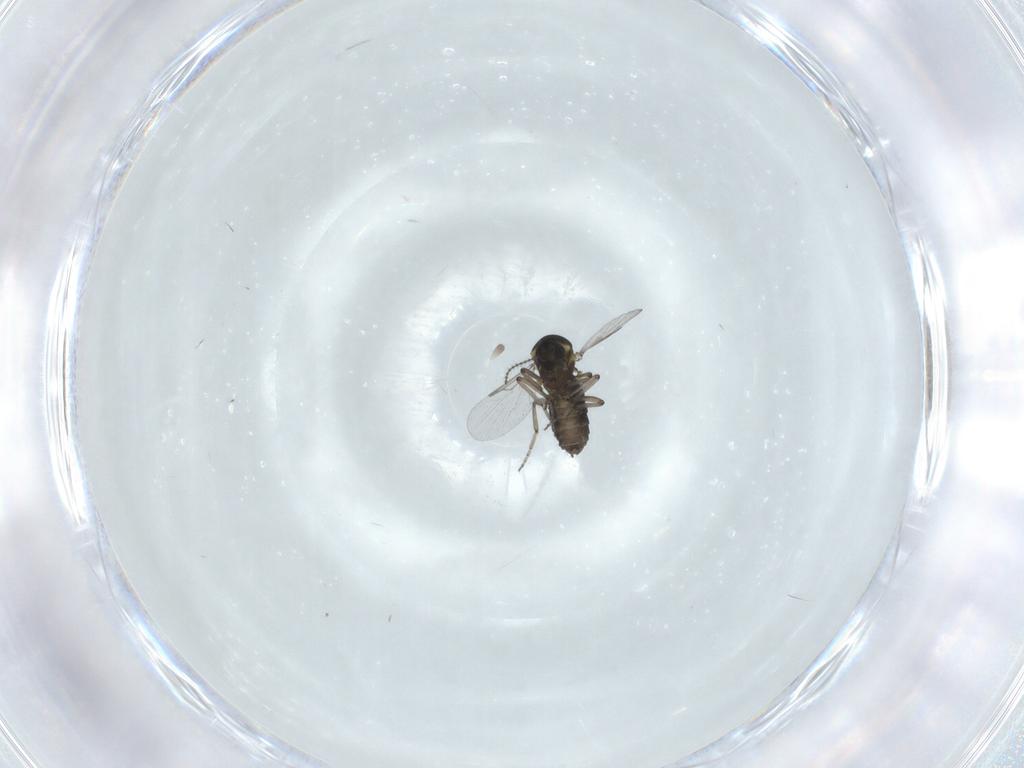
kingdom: Animalia
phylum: Arthropoda
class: Insecta
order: Diptera
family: Ceratopogonidae
